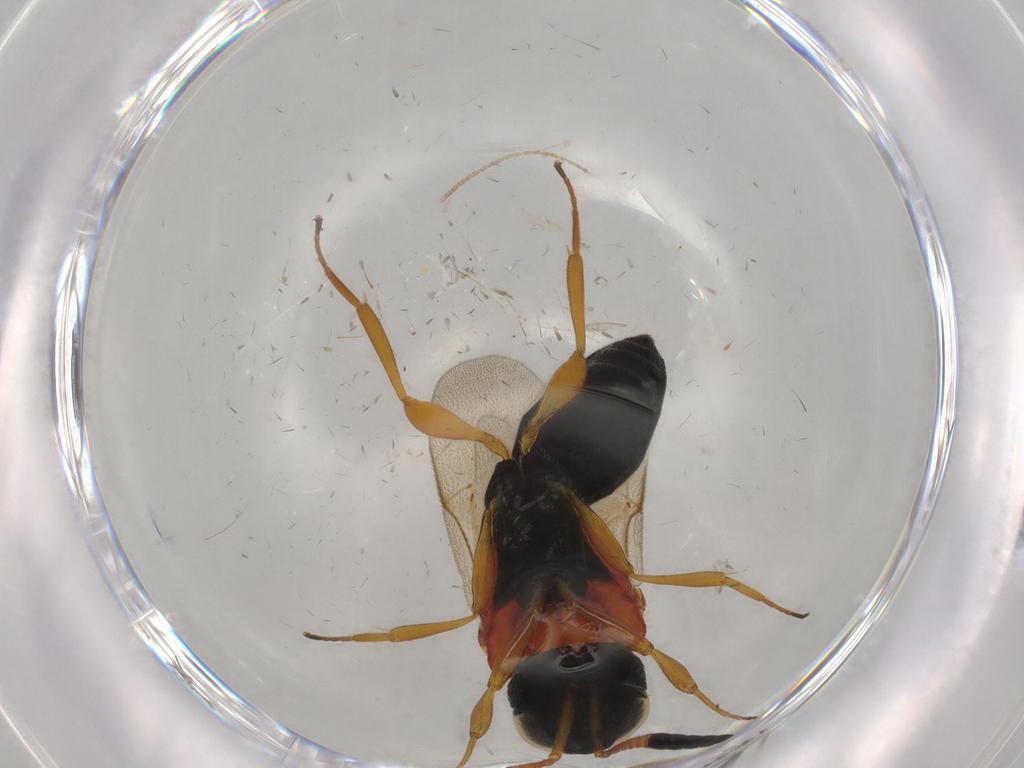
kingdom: Animalia
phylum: Arthropoda
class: Insecta
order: Hymenoptera
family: Scelionidae
